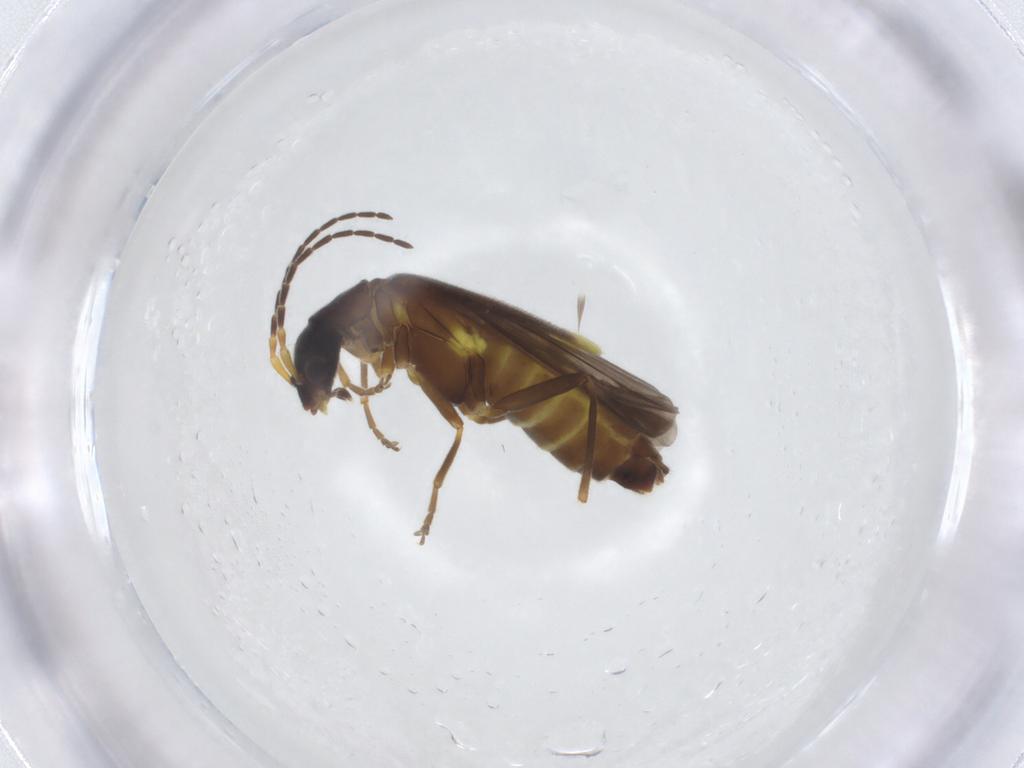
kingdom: Animalia
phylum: Arthropoda
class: Insecta
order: Coleoptera
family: Cantharidae
